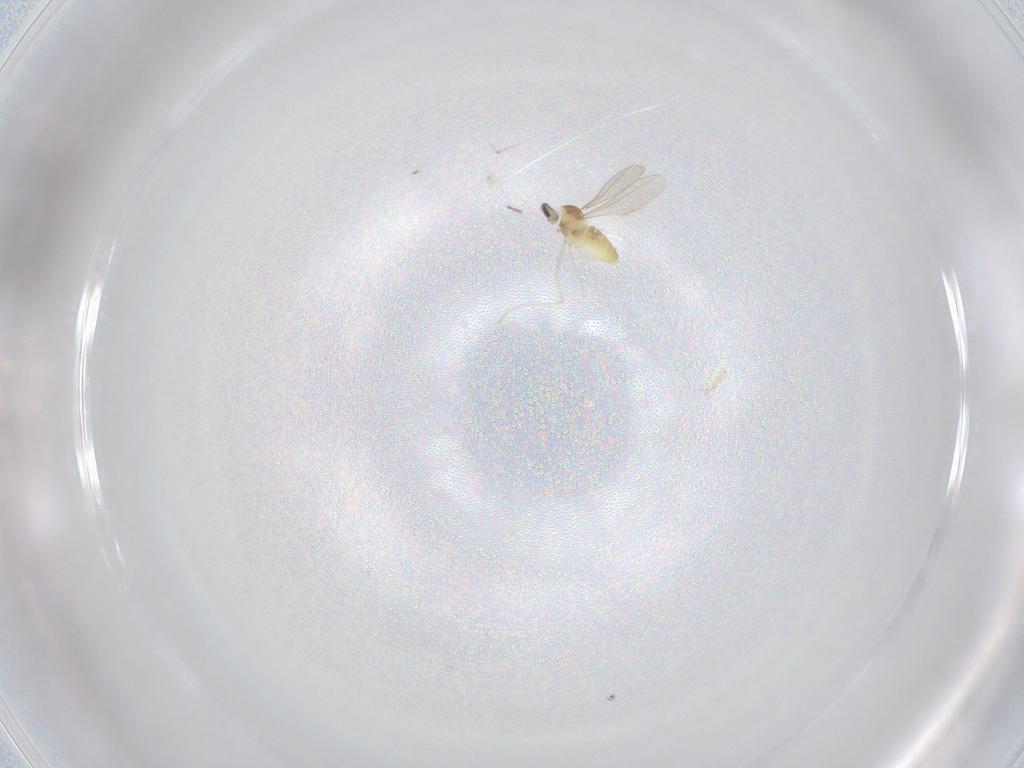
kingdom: Animalia
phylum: Arthropoda
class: Insecta
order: Diptera
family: Cecidomyiidae
